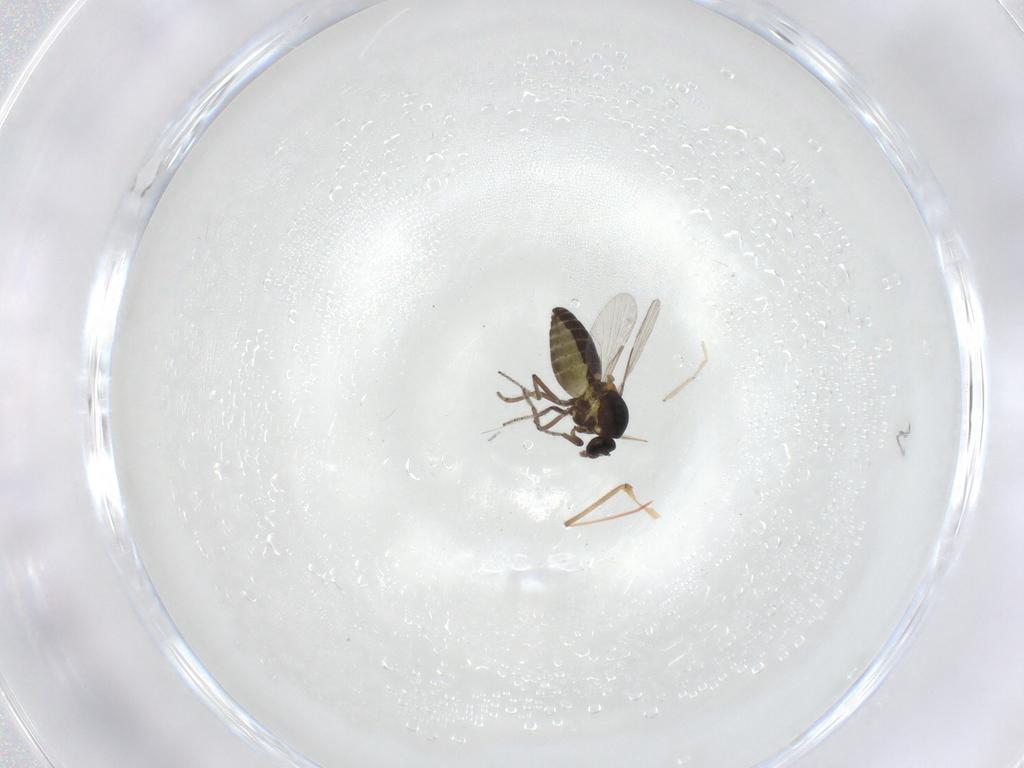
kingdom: Animalia
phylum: Arthropoda
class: Insecta
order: Diptera
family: Ceratopogonidae
